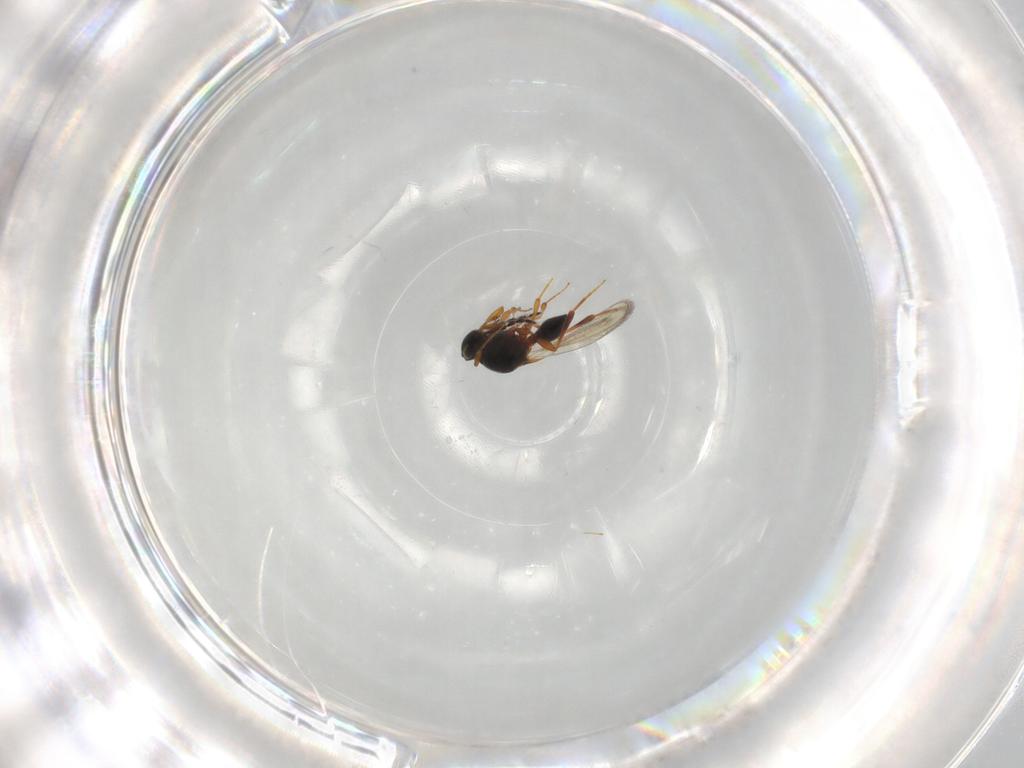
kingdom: Animalia
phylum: Arthropoda
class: Insecta
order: Hymenoptera
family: Platygastridae
